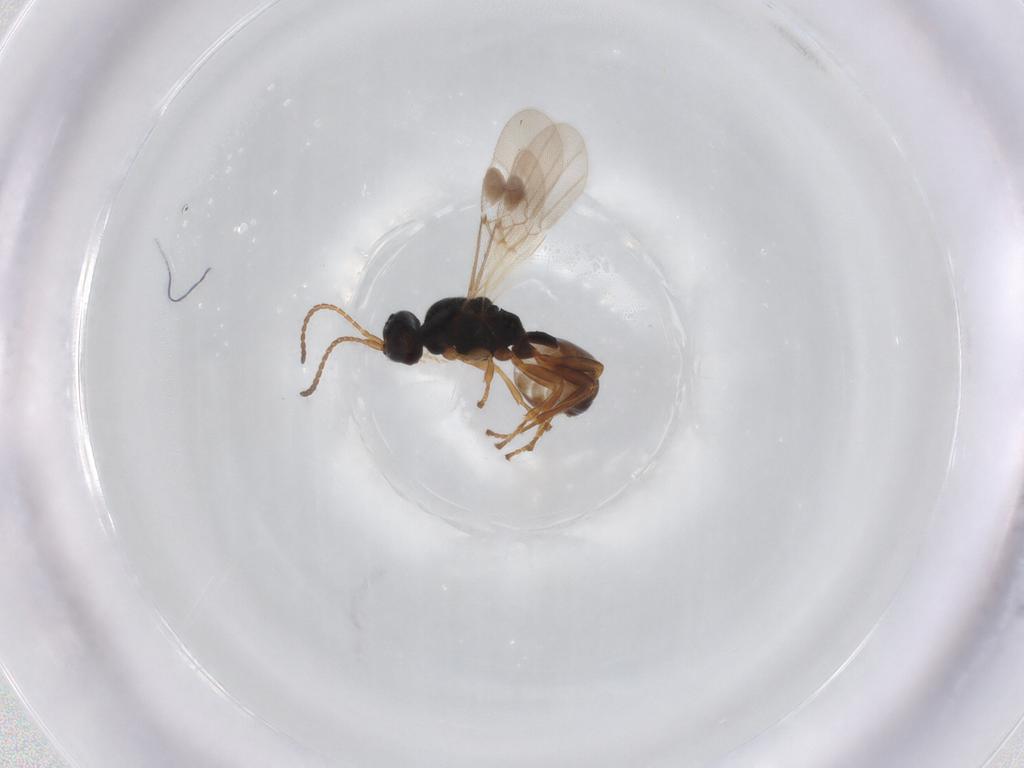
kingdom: Animalia
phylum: Arthropoda
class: Insecta
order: Hymenoptera
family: Braconidae
